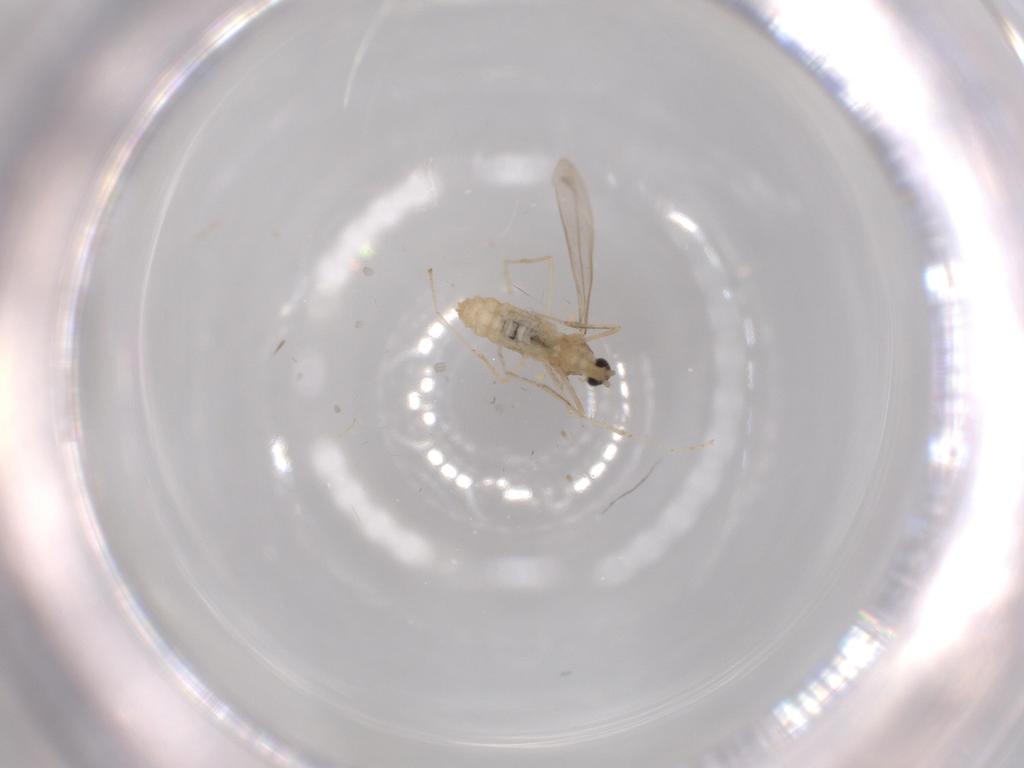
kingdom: Animalia
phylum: Arthropoda
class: Insecta
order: Diptera
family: Cecidomyiidae
